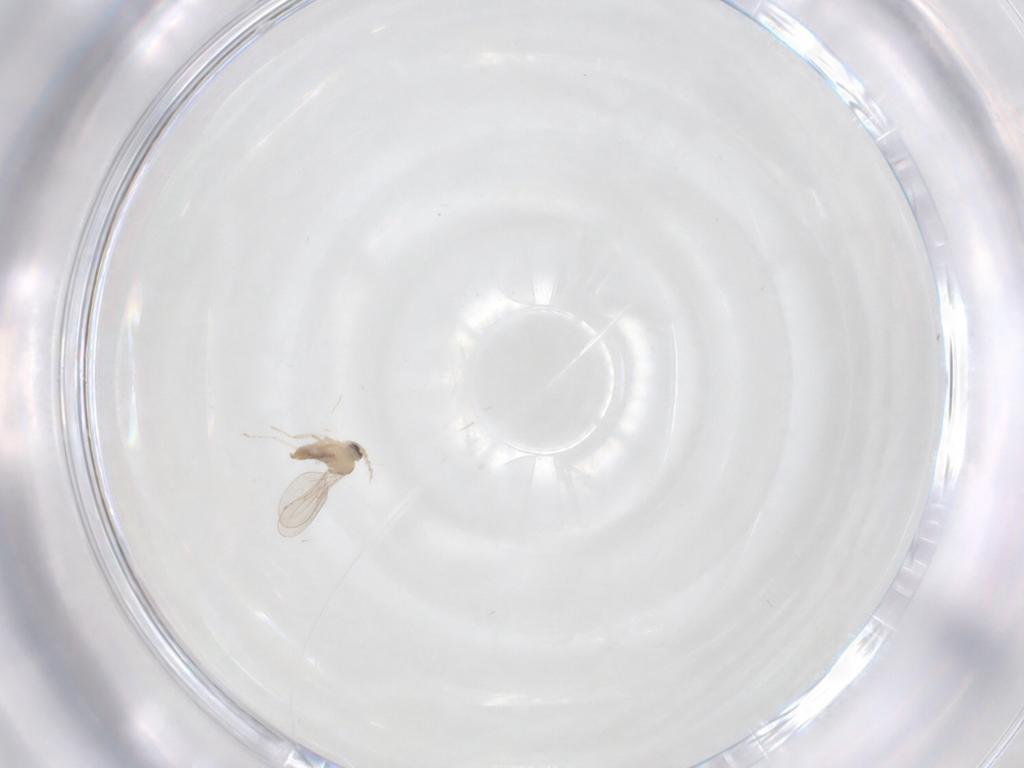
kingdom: Animalia
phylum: Arthropoda
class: Insecta
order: Diptera
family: Cecidomyiidae
